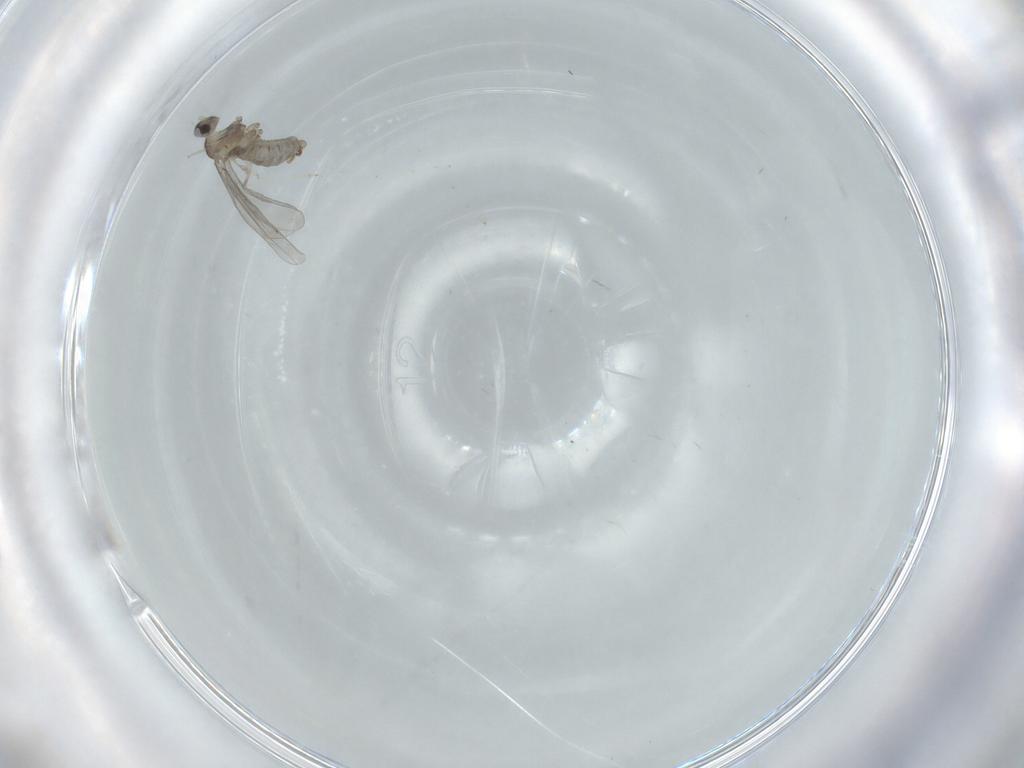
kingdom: Animalia
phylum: Arthropoda
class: Insecta
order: Diptera
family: Cecidomyiidae
